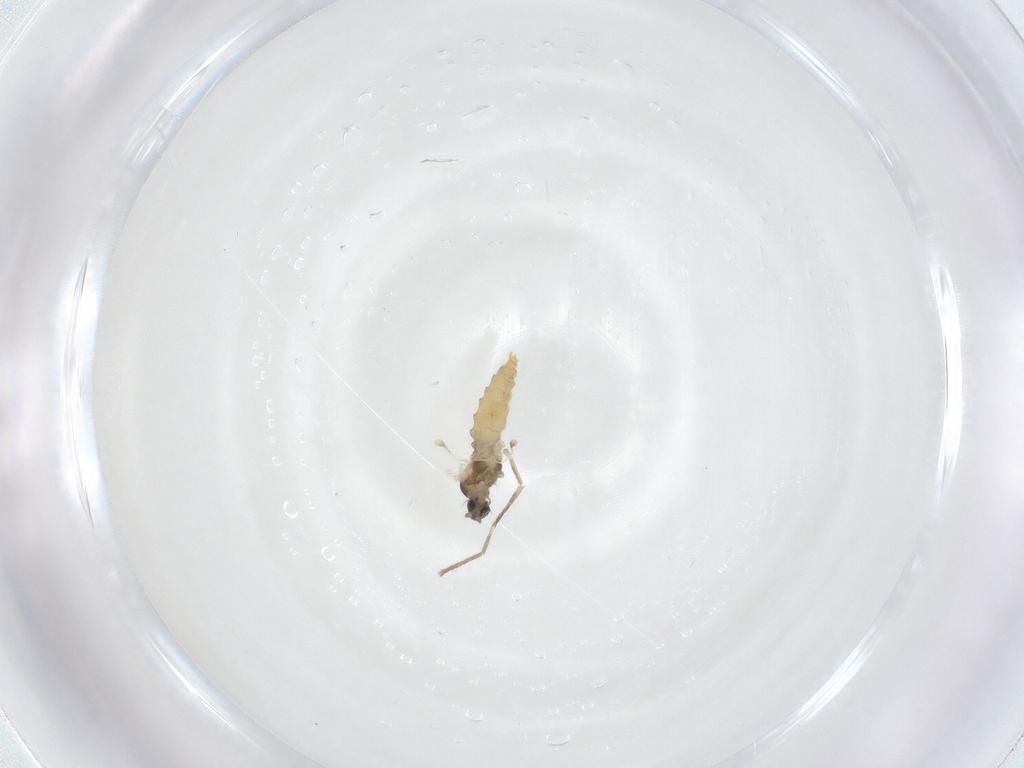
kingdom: Animalia
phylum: Arthropoda
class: Insecta
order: Diptera
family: Cecidomyiidae
